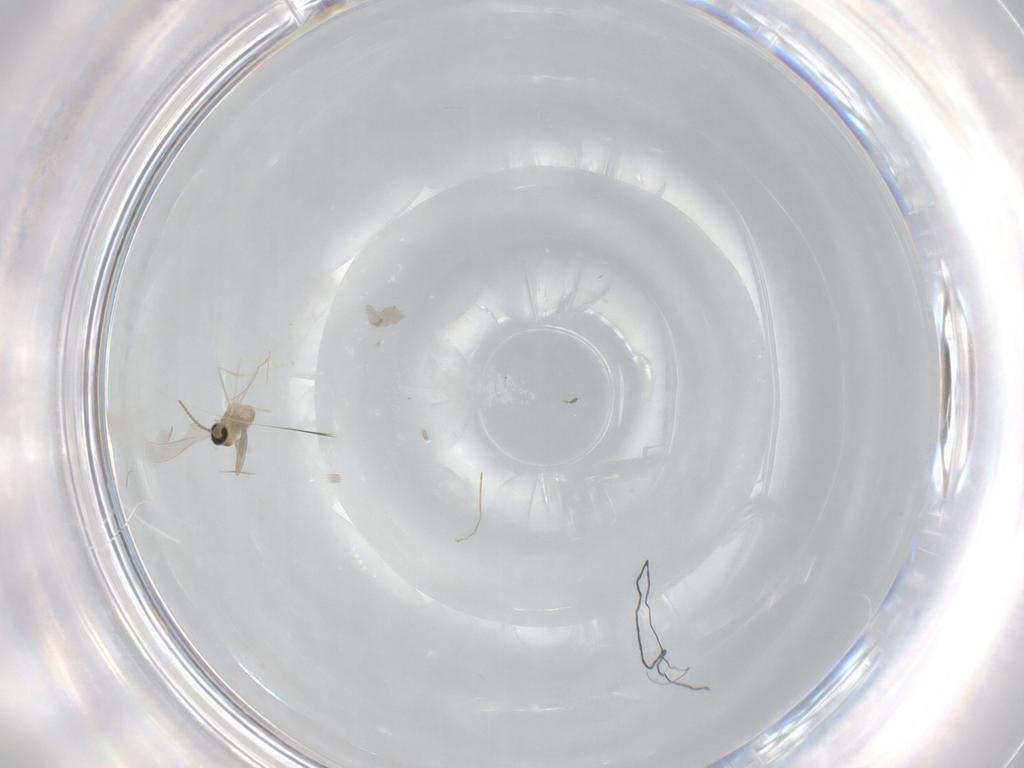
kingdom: Animalia
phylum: Arthropoda
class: Insecta
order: Diptera
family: Cecidomyiidae
